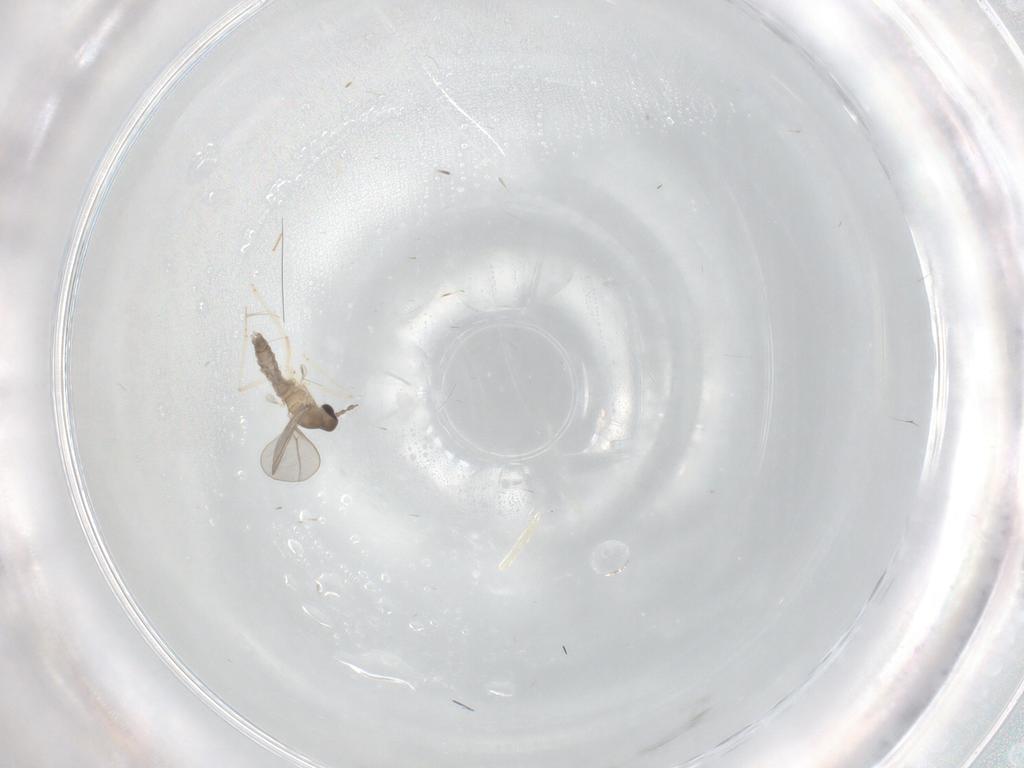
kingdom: Animalia
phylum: Arthropoda
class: Insecta
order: Diptera
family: Cecidomyiidae
